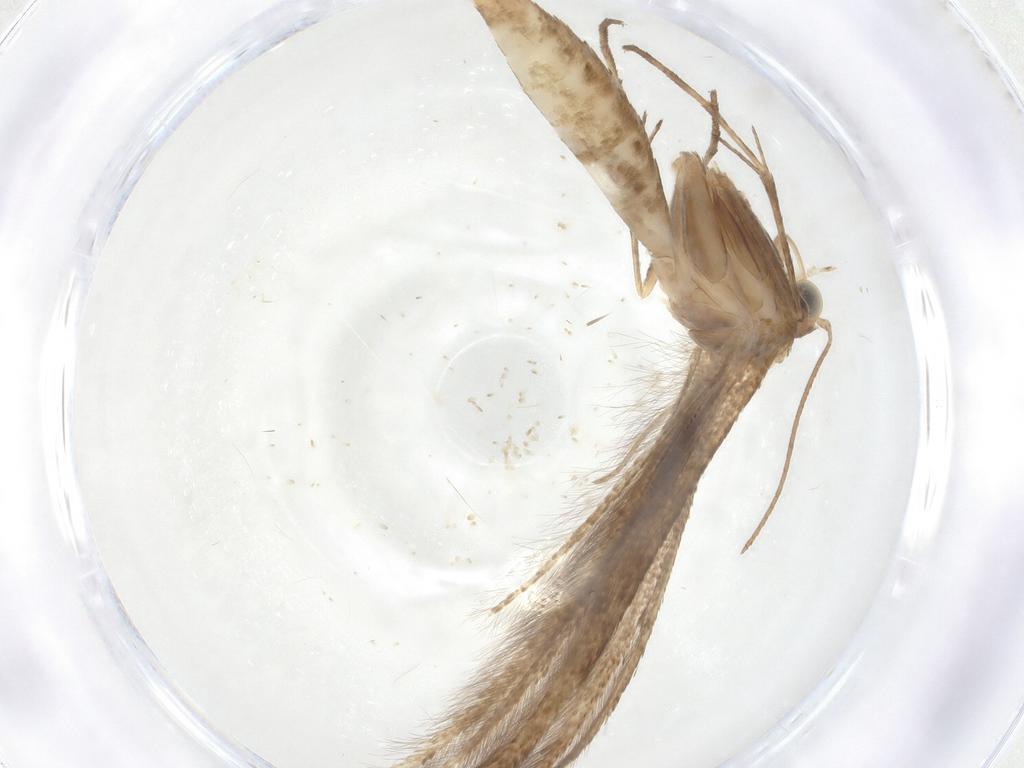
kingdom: Animalia
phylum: Arthropoda
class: Insecta
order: Lepidoptera
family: Pterophoridae
